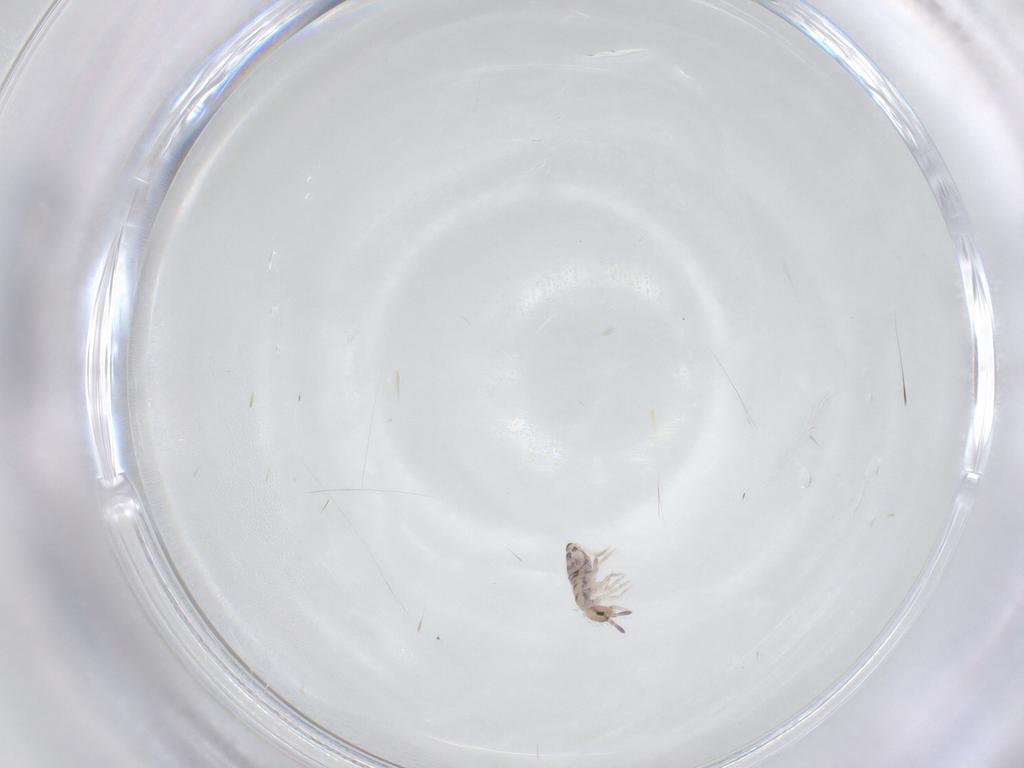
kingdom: Animalia
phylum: Arthropoda
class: Collembola
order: Entomobryomorpha
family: Entomobryidae
